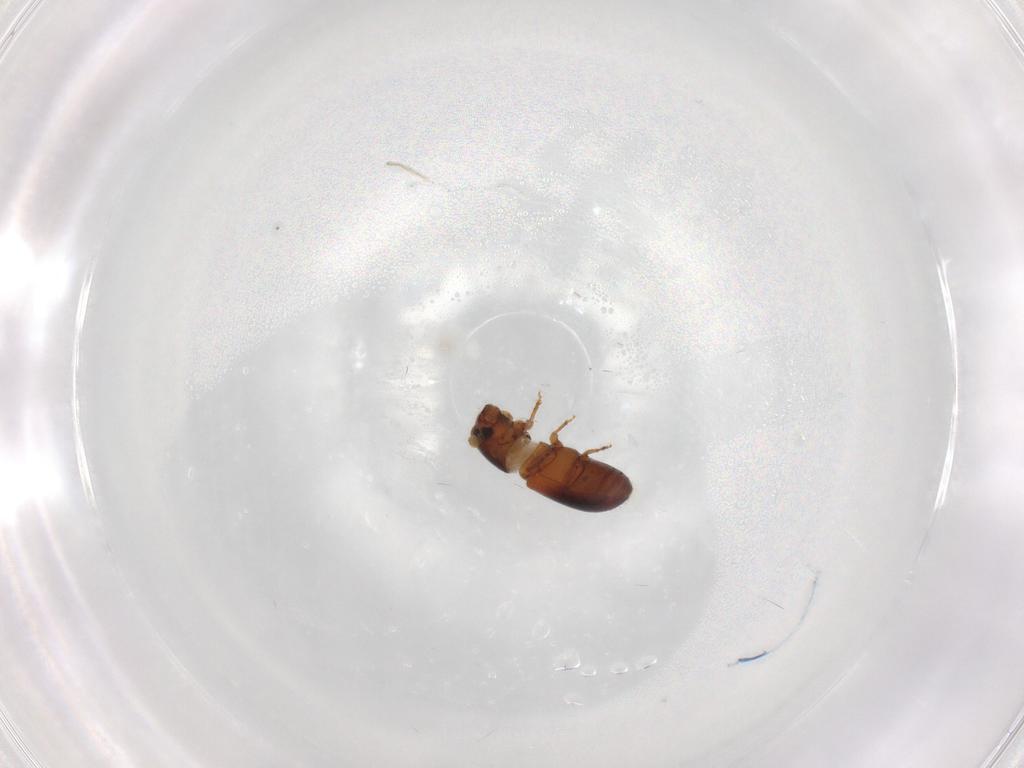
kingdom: Animalia
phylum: Arthropoda
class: Insecta
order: Coleoptera
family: Curculionidae
